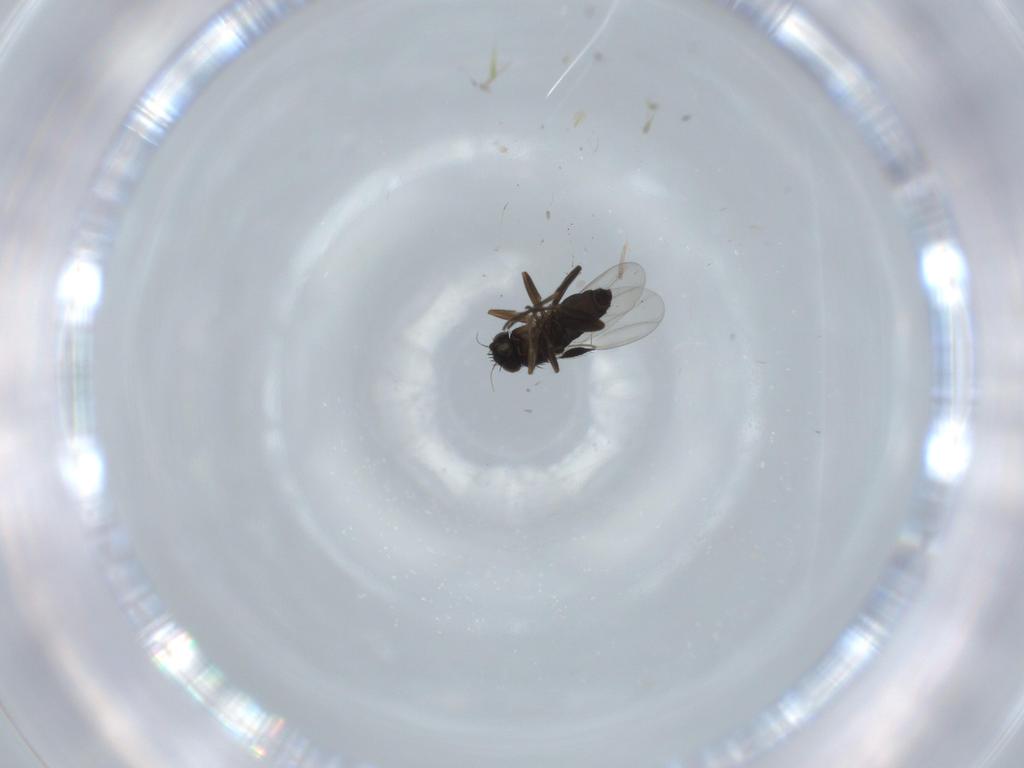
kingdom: Animalia
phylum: Arthropoda
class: Insecta
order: Diptera
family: Phoridae
